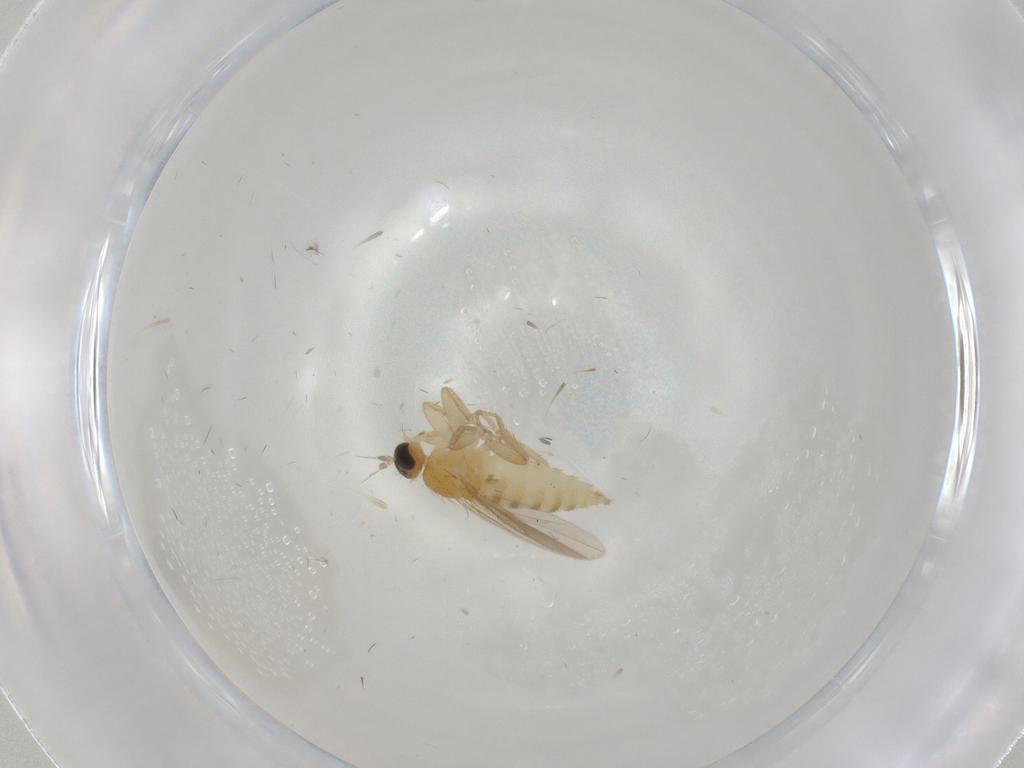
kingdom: Animalia
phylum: Arthropoda
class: Insecta
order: Diptera
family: Hybotidae
